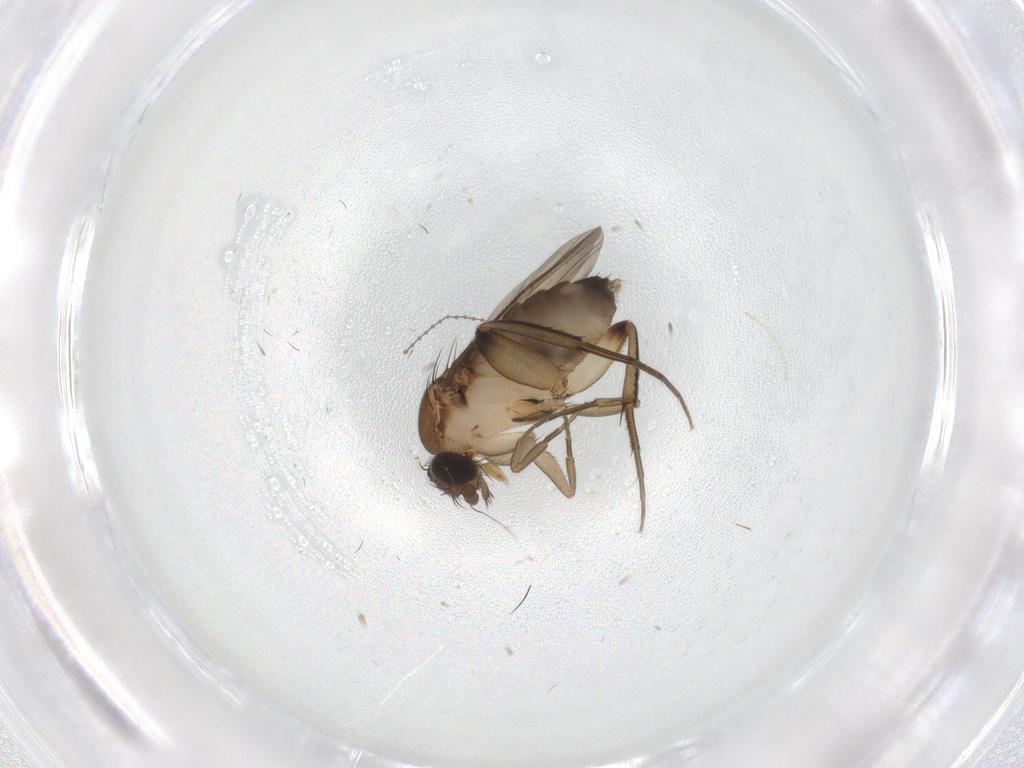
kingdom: Animalia
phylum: Arthropoda
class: Insecta
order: Diptera
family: Phoridae
